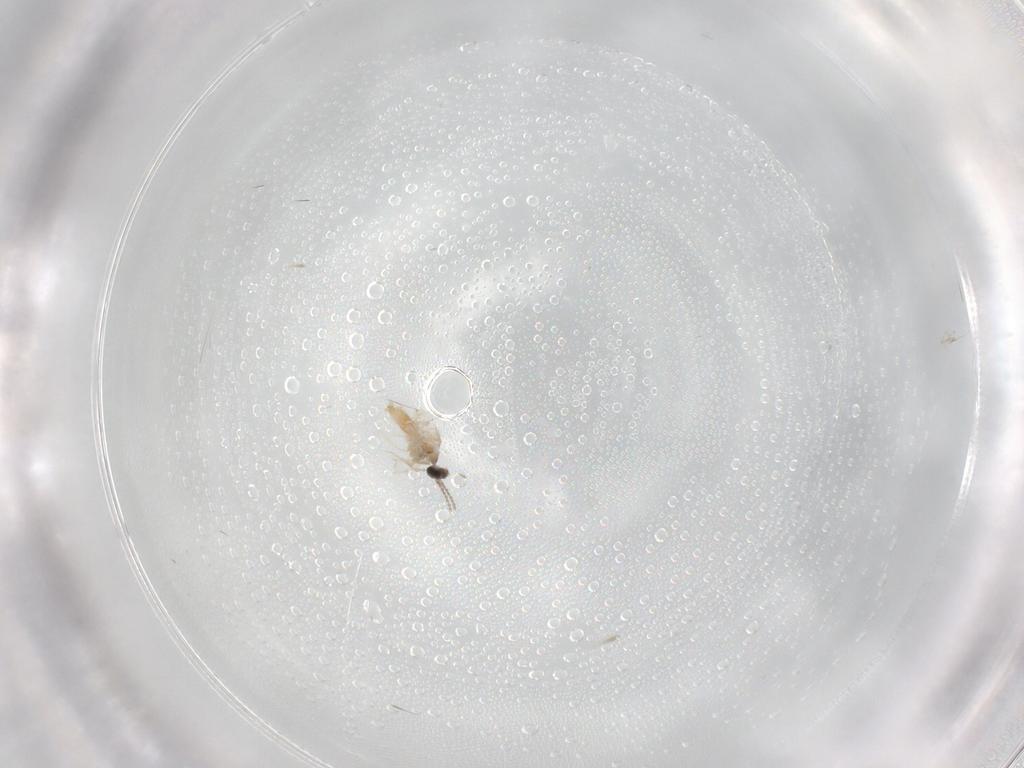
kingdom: Animalia
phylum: Arthropoda
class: Insecta
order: Diptera
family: Cecidomyiidae
